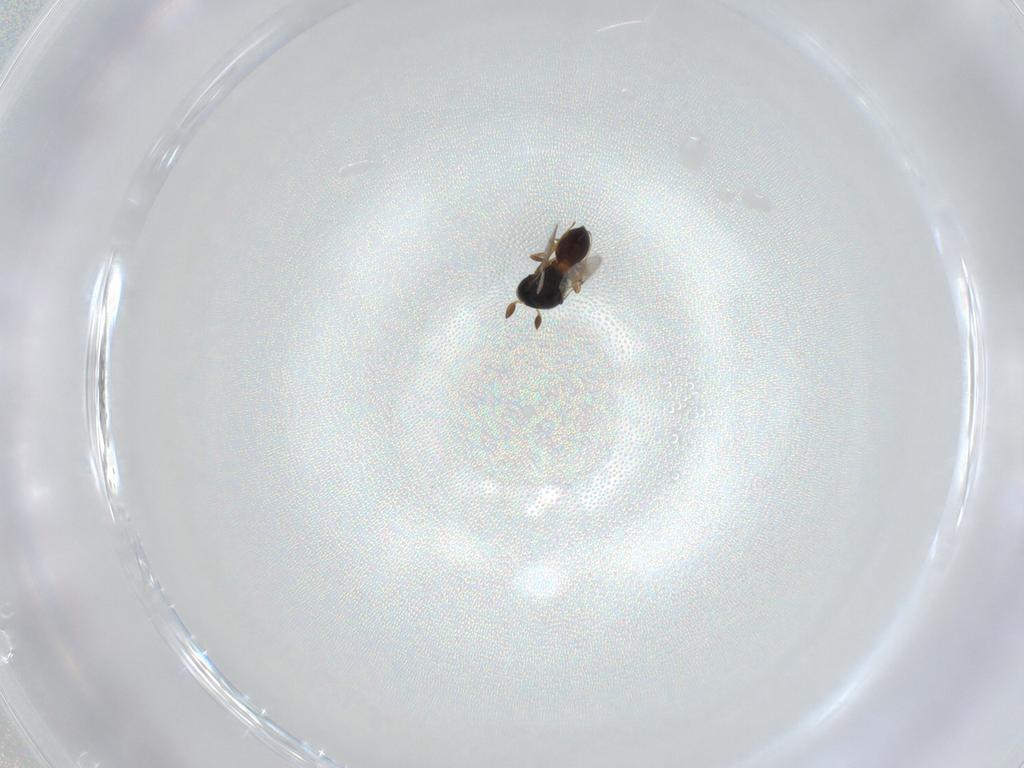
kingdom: Animalia
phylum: Arthropoda
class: Insecta
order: Hymenoptera
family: Scelionidae
